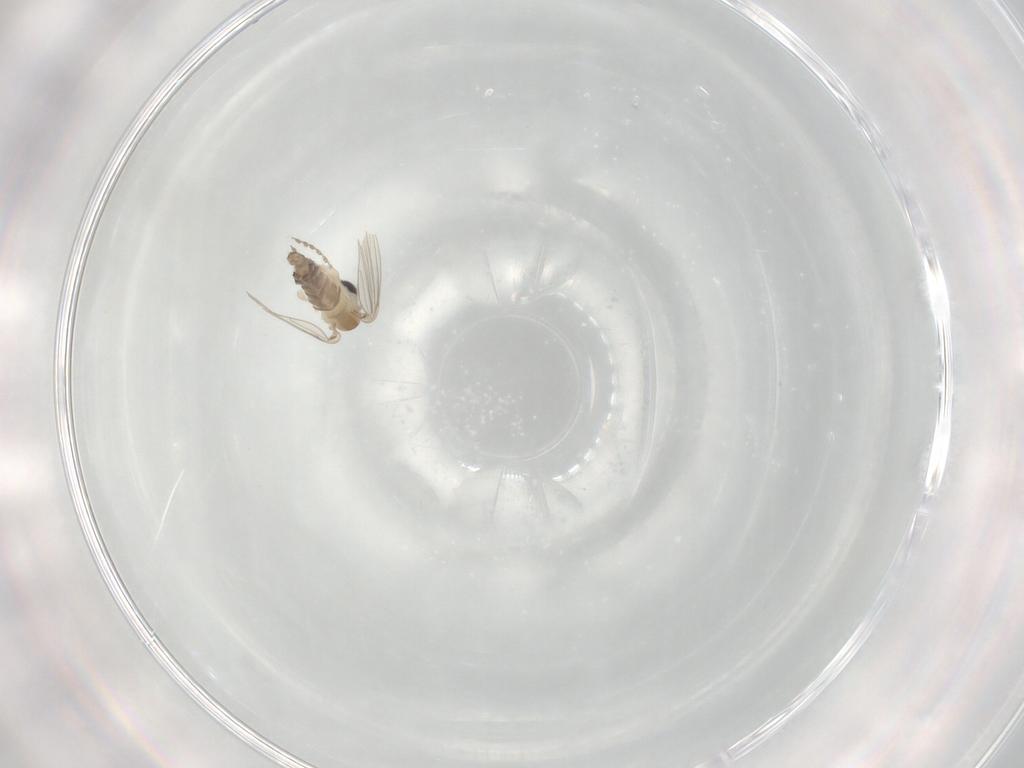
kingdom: Animalia
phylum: Arthropoda
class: Insecta
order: Diptera
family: Psychodidae
